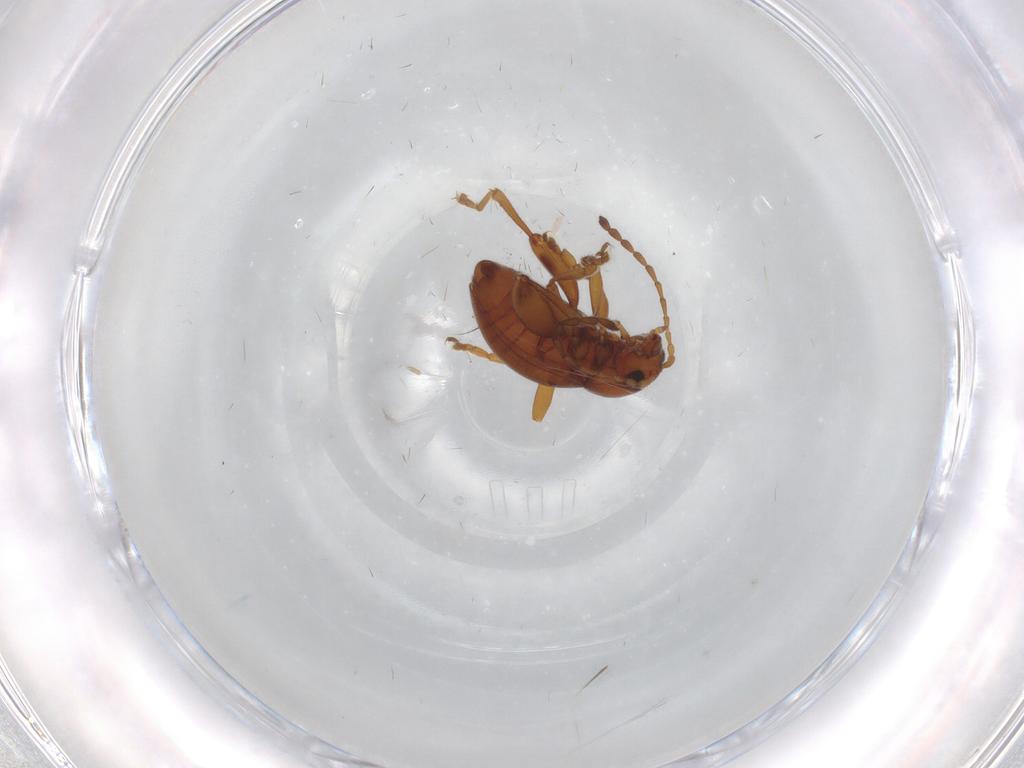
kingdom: Animalia
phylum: Arthropoda
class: Insecta
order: Coleoptera
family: Chrysomelidae
